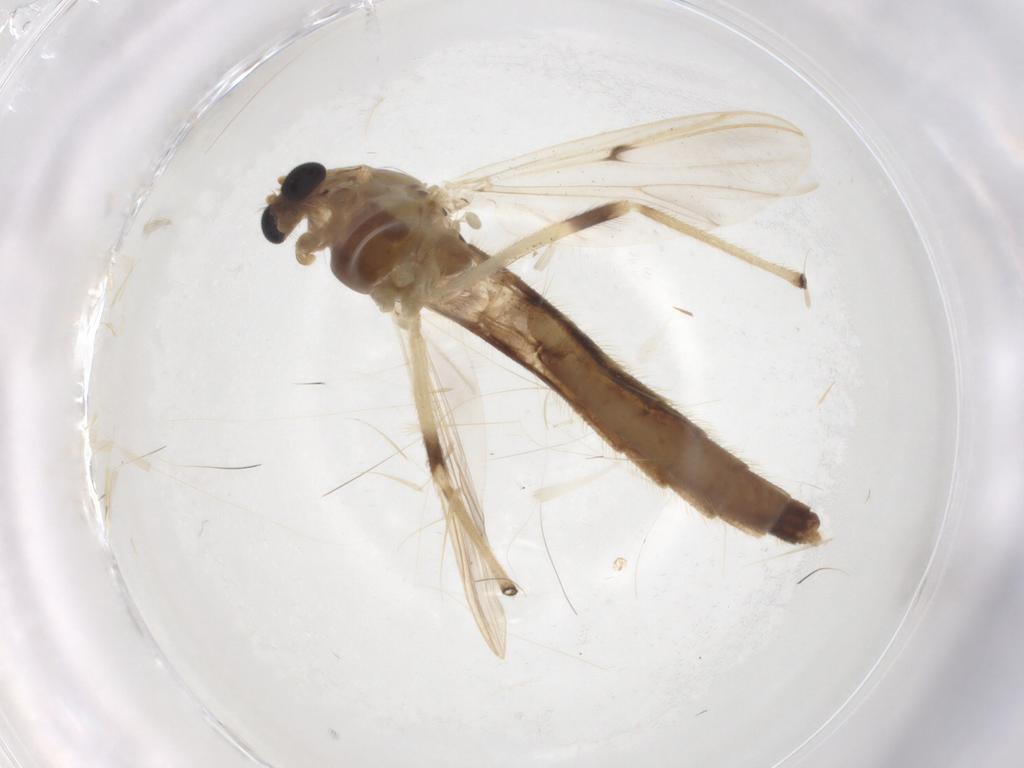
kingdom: Animalia
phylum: Arthropoda
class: Insecta
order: Diptera
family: Chironomidae
